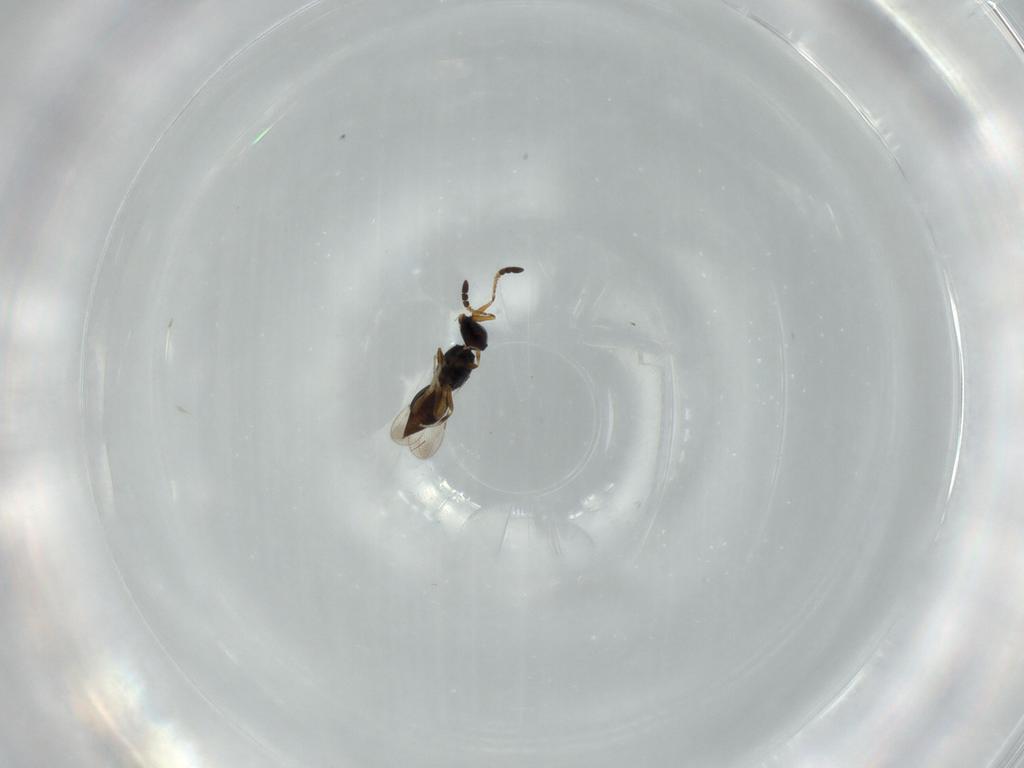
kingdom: Animalia
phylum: Arthropoda
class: Insecta
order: Hymenoptera
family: Ceraphronidae
